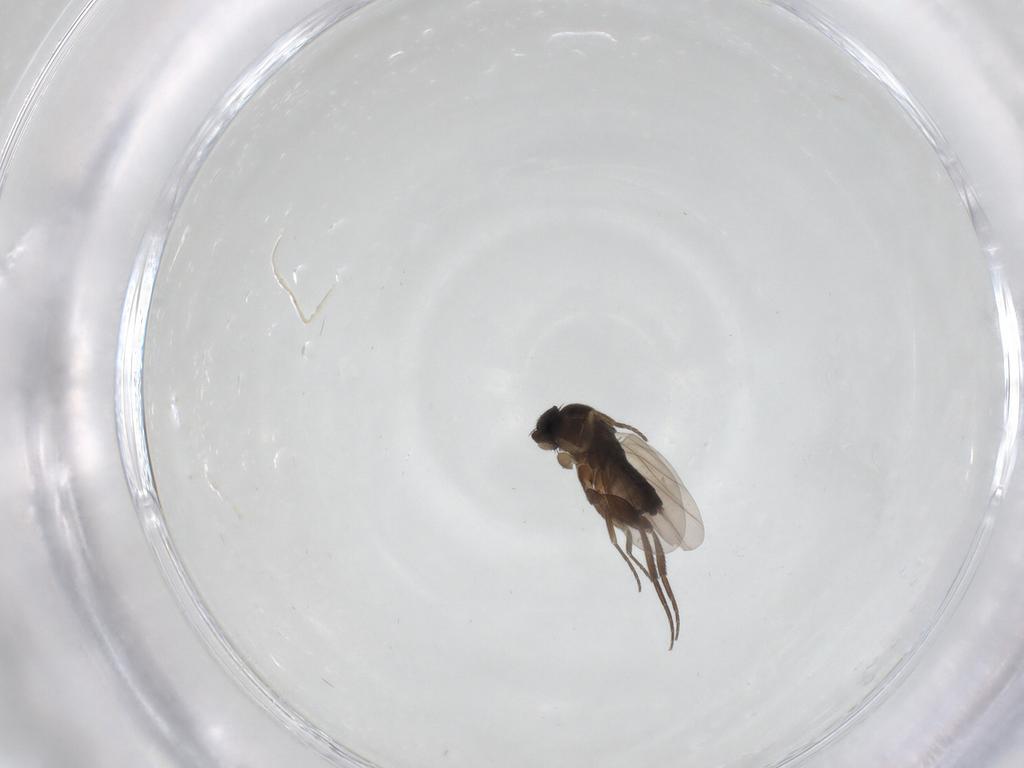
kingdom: Animalia
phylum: Arthropoda
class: Insecta
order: Diptera
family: Phoridae
